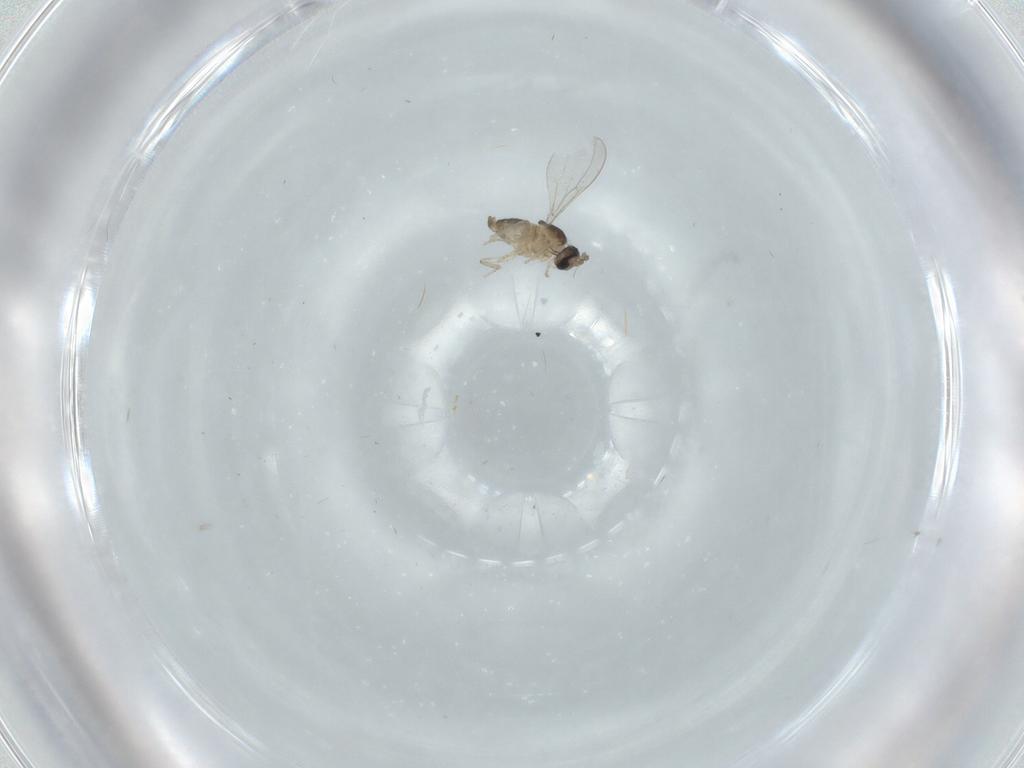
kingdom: Animalia
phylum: Arthropoda
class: Insecta
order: Diptera
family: Cecidomyiidae
